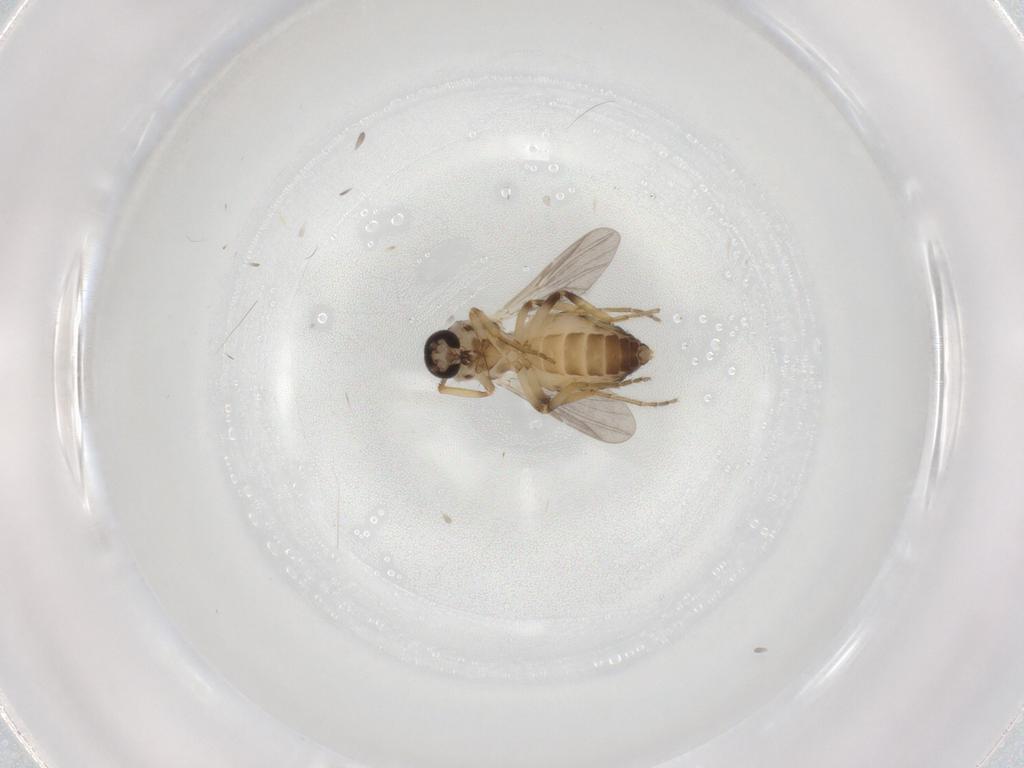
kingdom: Animalia
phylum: Arthropoda
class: Insecta
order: Diptera
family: Ceratopogonidae
